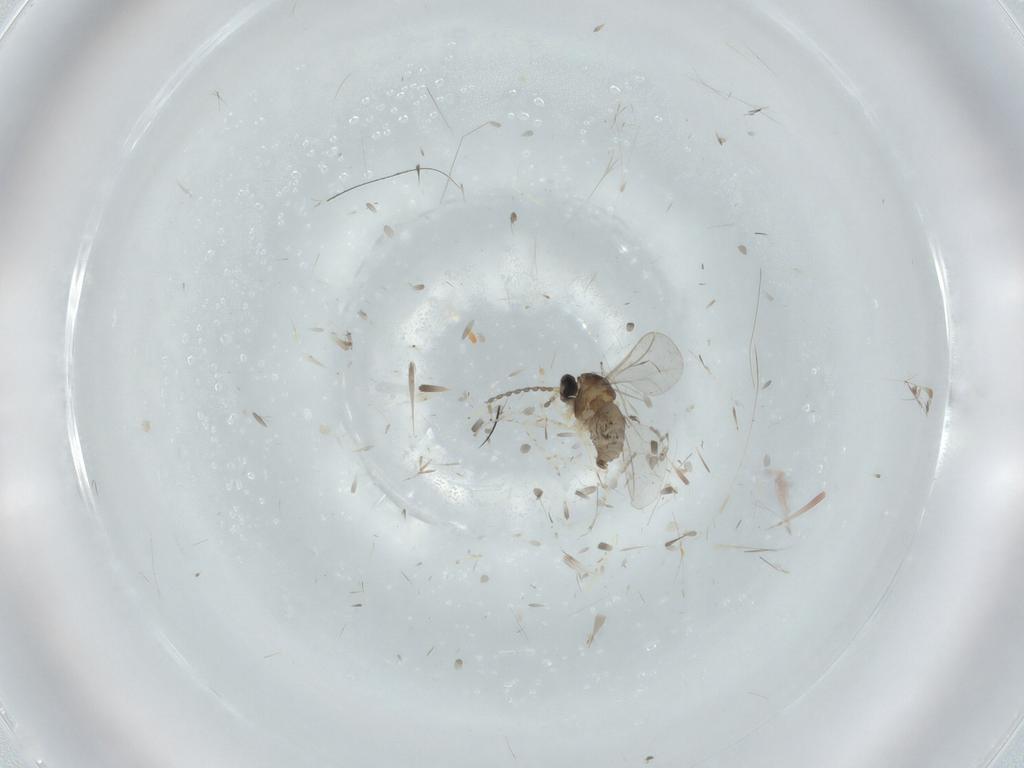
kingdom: Animalia
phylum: Arthropoda
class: Insecta
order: Diptera
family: Cecidomyiidae
